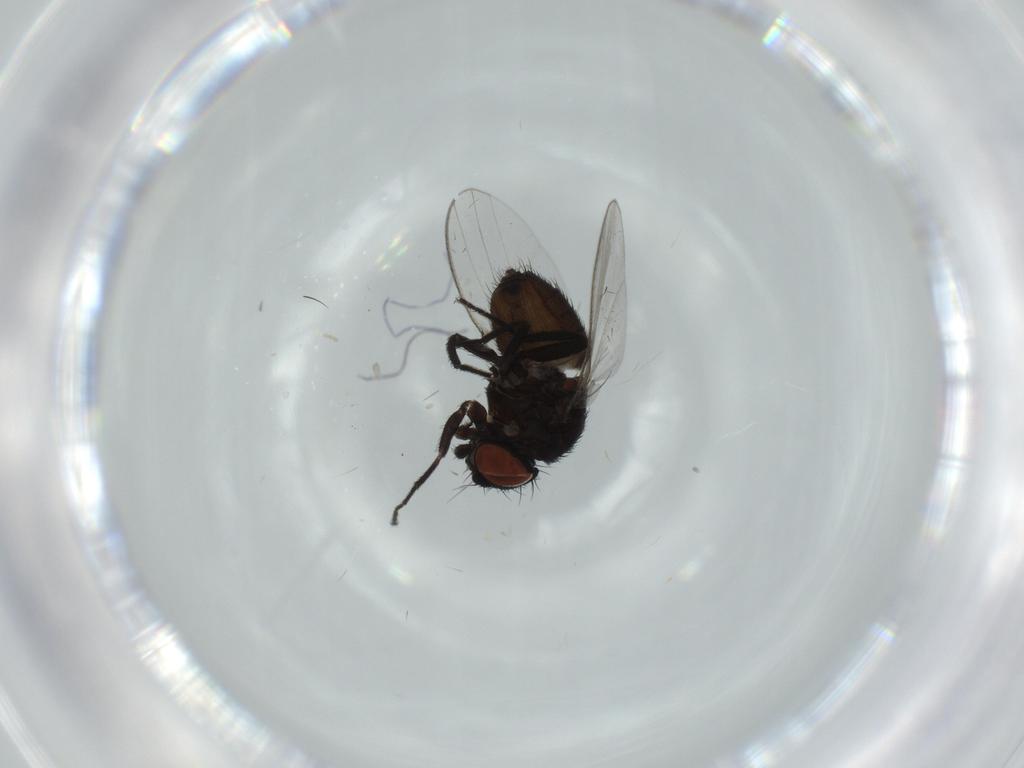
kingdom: Animalia
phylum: Arthropoda
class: Insecta
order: Diptera
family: Milichiidae
